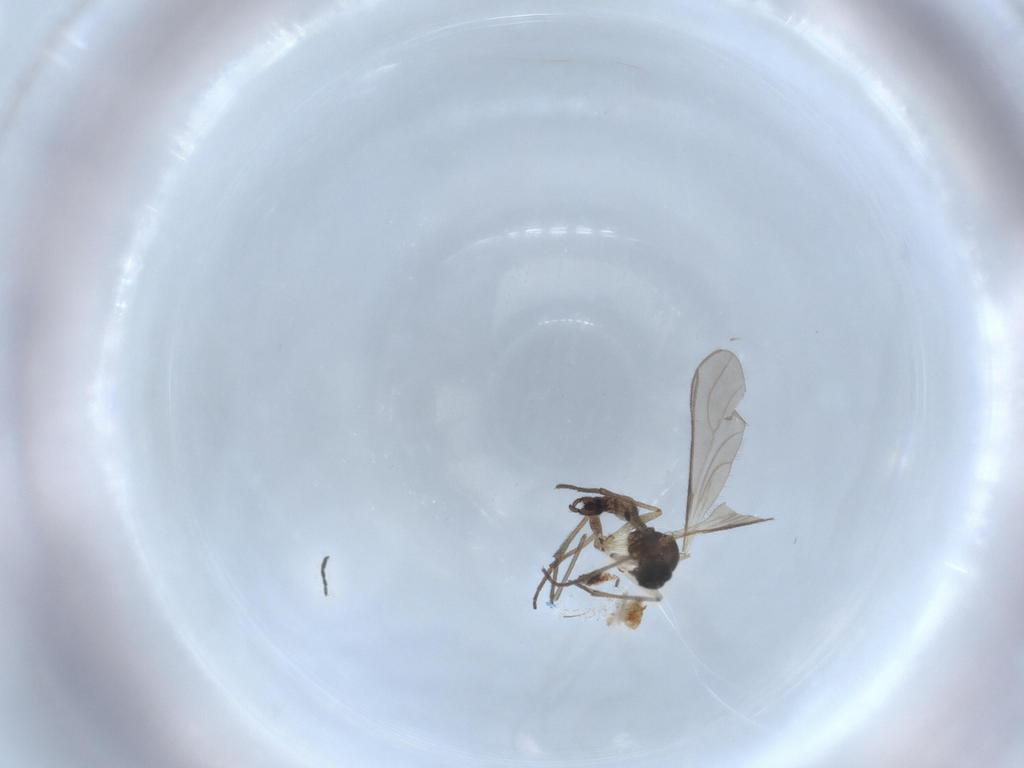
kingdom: Animalia
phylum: Arthropoda
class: Insecta
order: Diptera
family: Sciaridae
